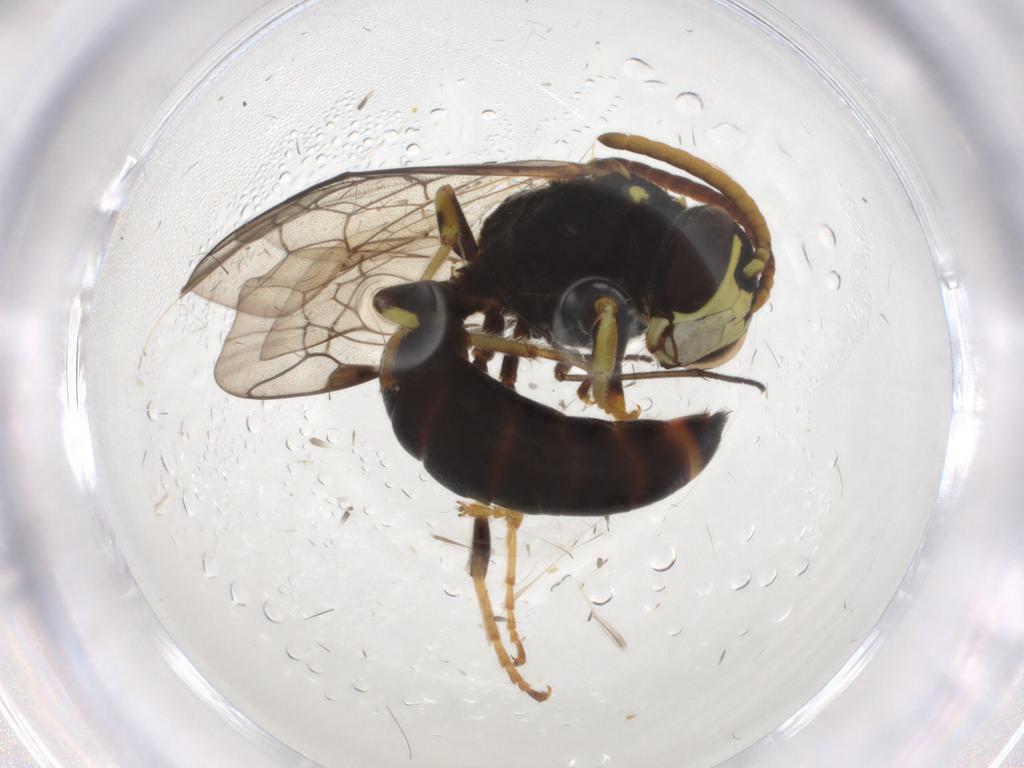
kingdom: Animalia
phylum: Arthropoda
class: Insecta
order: Hymenoptera
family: Colletidae
